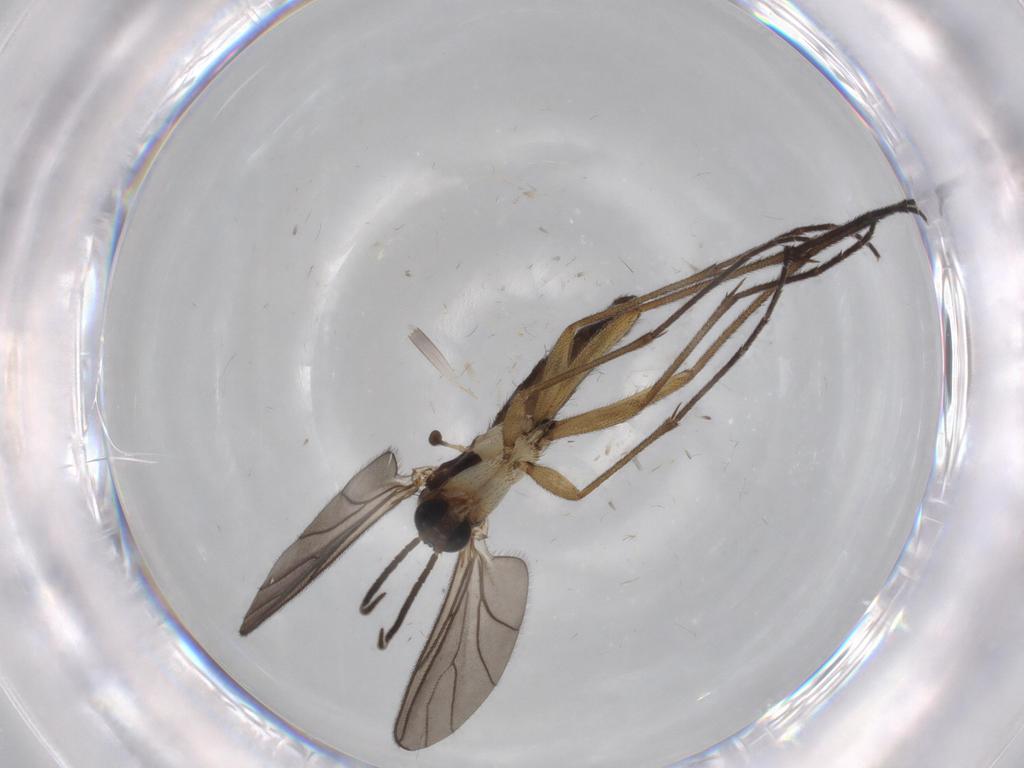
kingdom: Animalia
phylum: Arthropoda
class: Insecta
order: Diptera
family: Sciaridae
